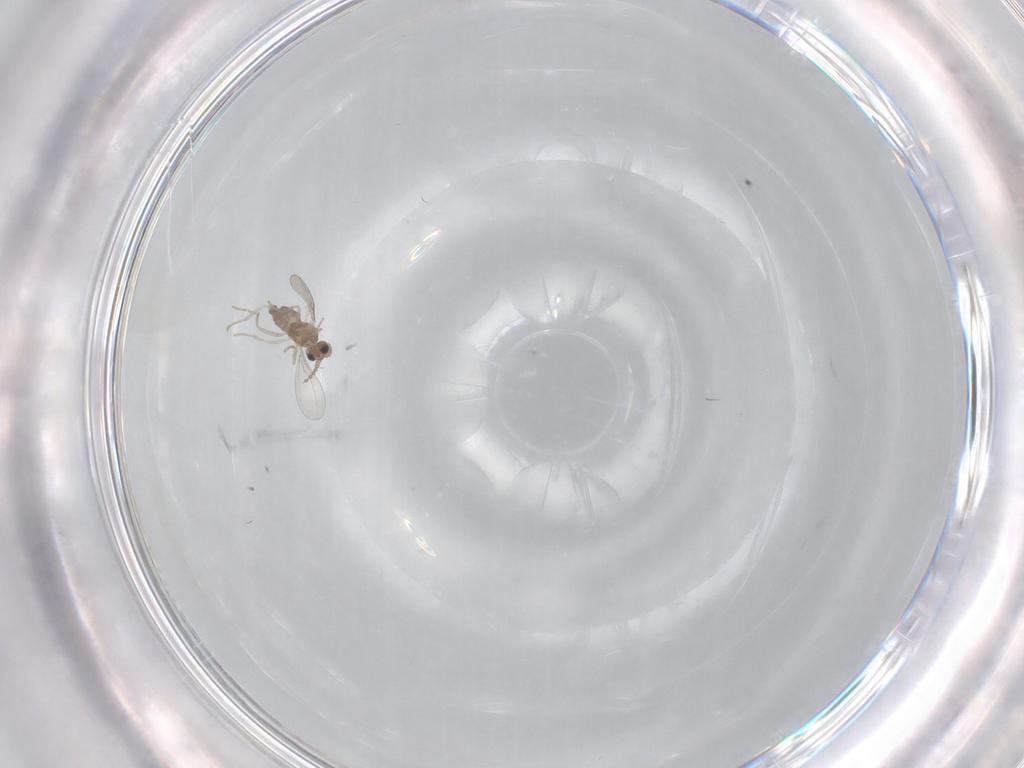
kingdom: Animalia
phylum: Arthropoda
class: Insecta
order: Diptera
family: Cecidomyiidae
